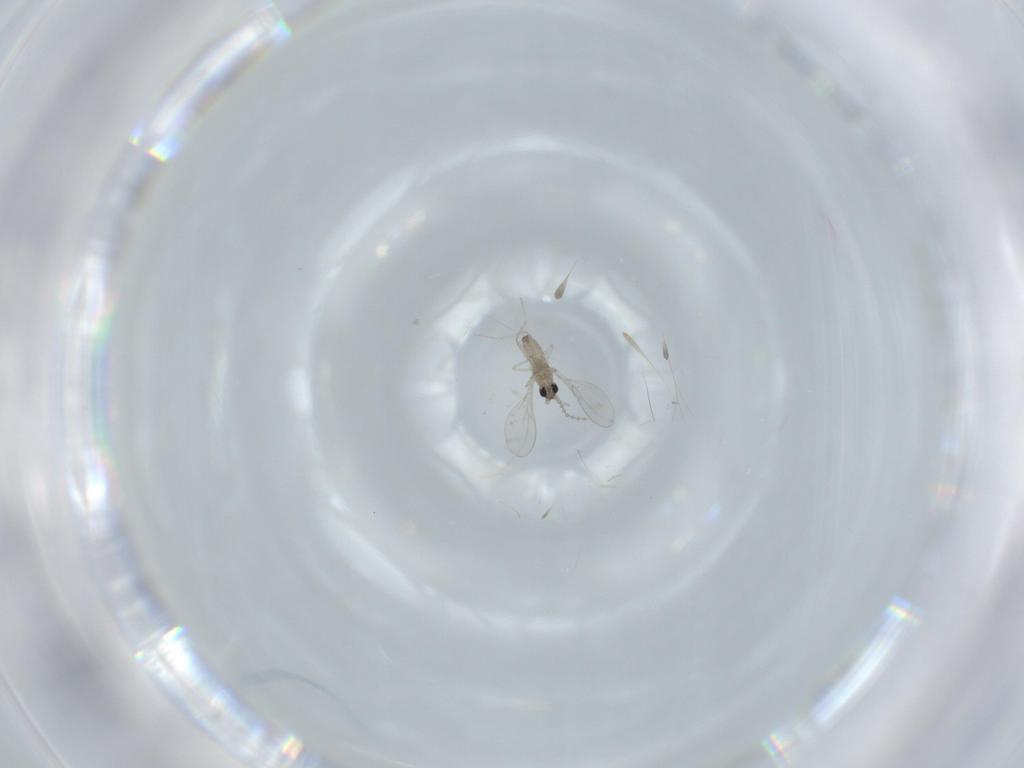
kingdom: Animalia
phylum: Arthropoda
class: Insecta
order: Diptera
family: Cecidomyiidae
